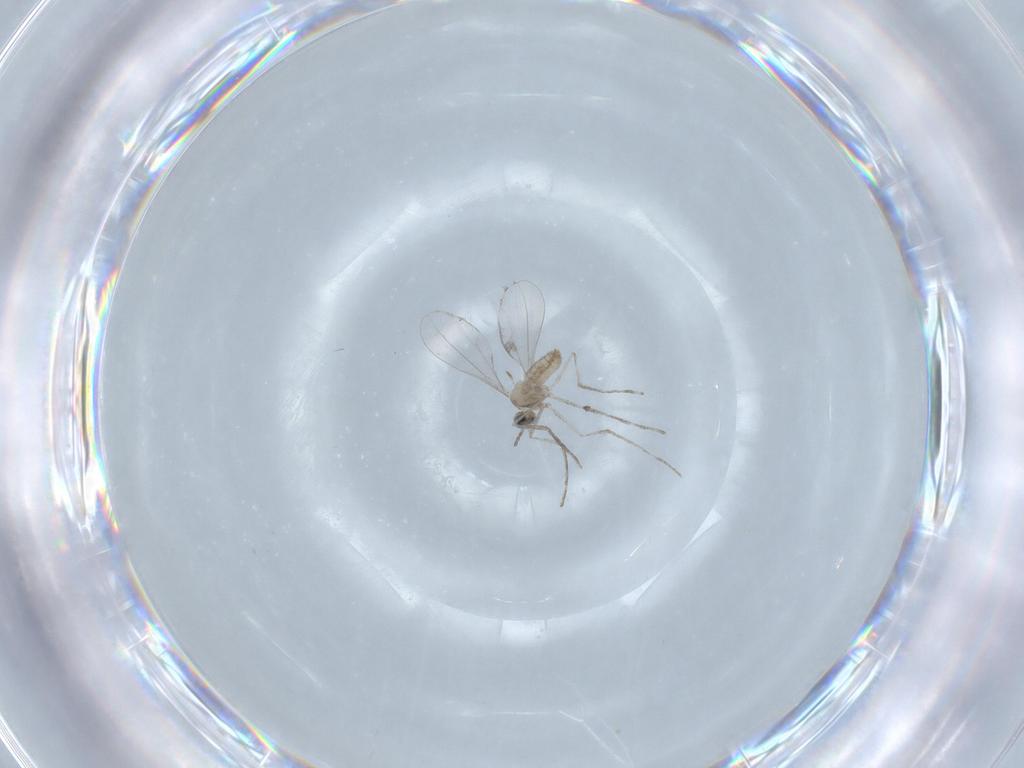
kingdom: Animalia
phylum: Arthropoda
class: Insecta
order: Diptera
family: Cecidomyiidae
